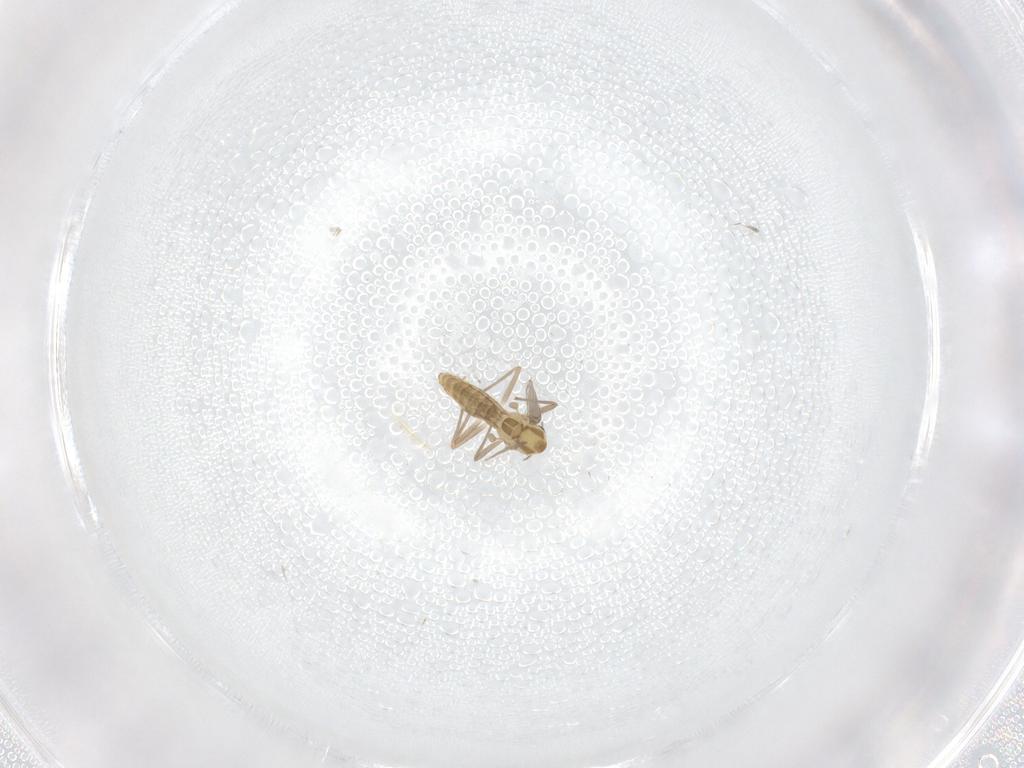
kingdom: Animalia
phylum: Arthropoda
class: Insecta
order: Diptera
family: Chironomidae
